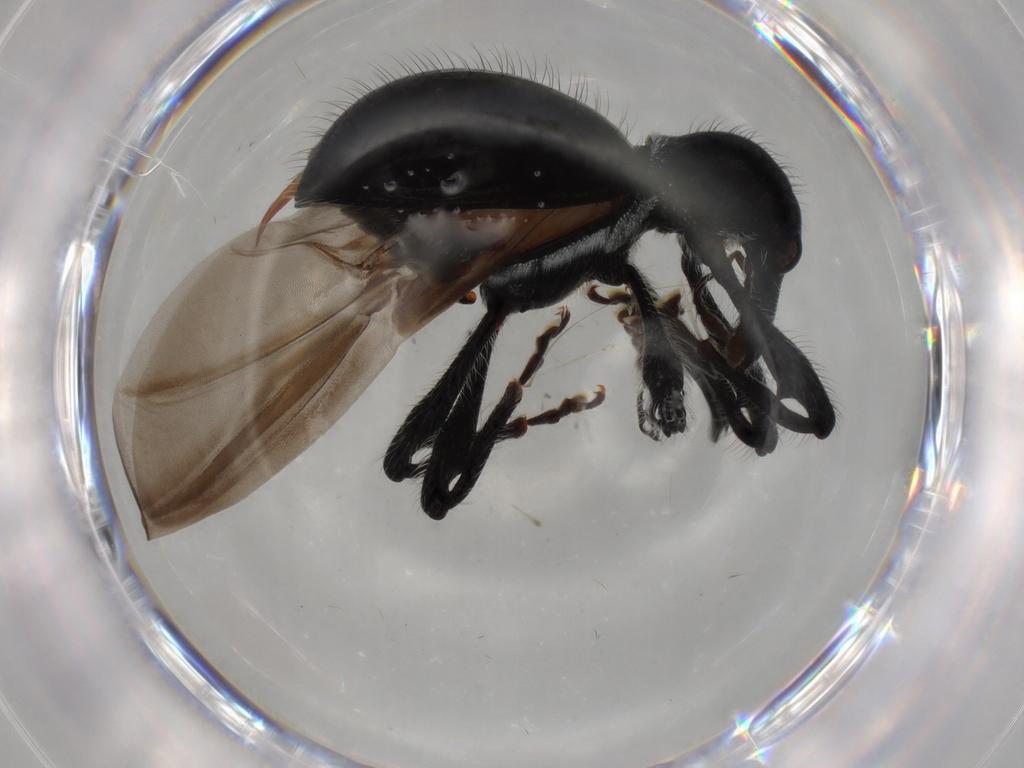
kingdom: Animalia
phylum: Arthropoda
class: Insecta
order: Coleoptera
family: Curculionidae
